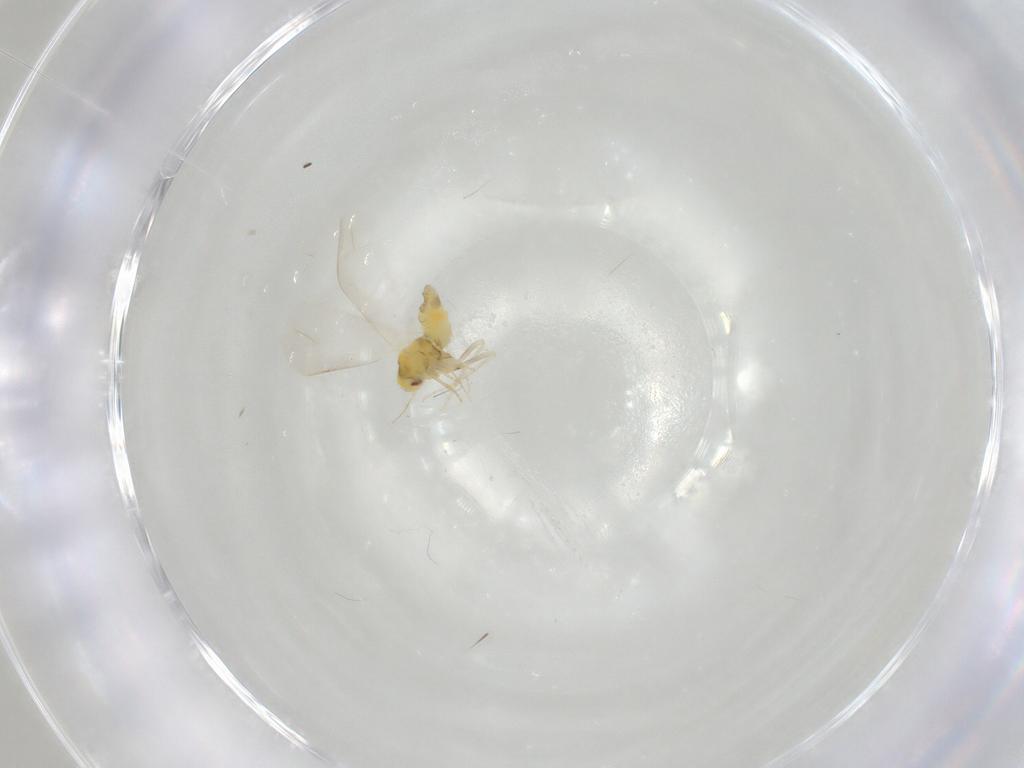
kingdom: Animalia
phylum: Arthropoda
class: Insecta
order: Hemiptera
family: Aleyrodidae
